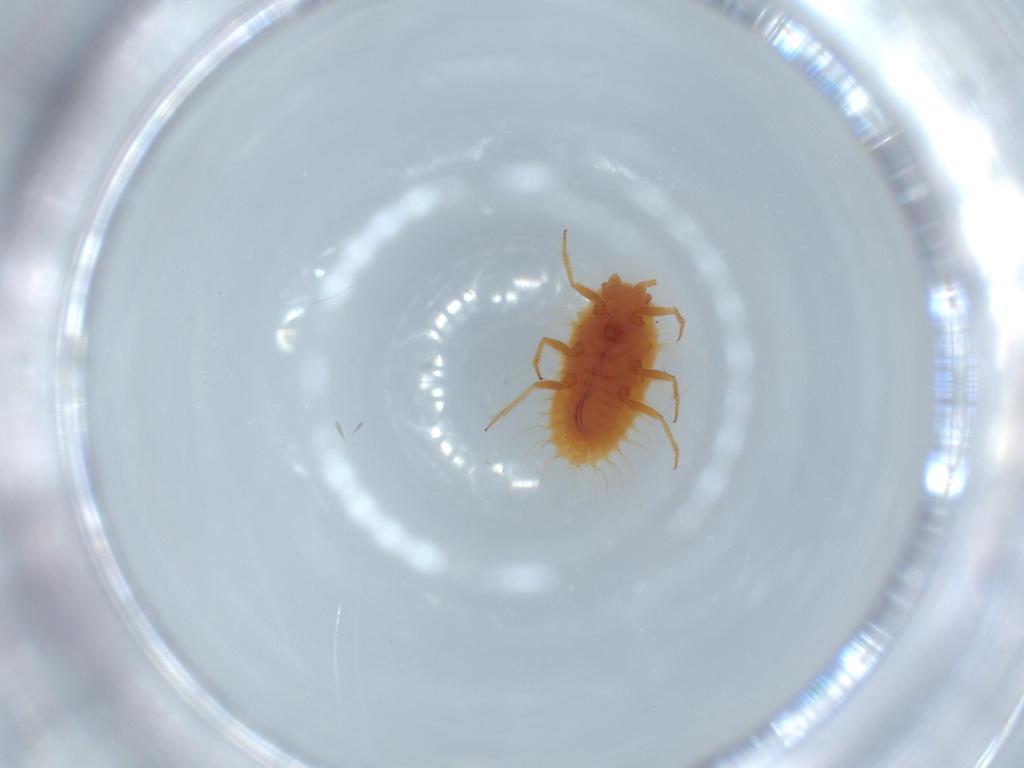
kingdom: Animalia
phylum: Arthropoda
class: Insecta
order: Hemiptera
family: Coccoidea_incertae_sedis
